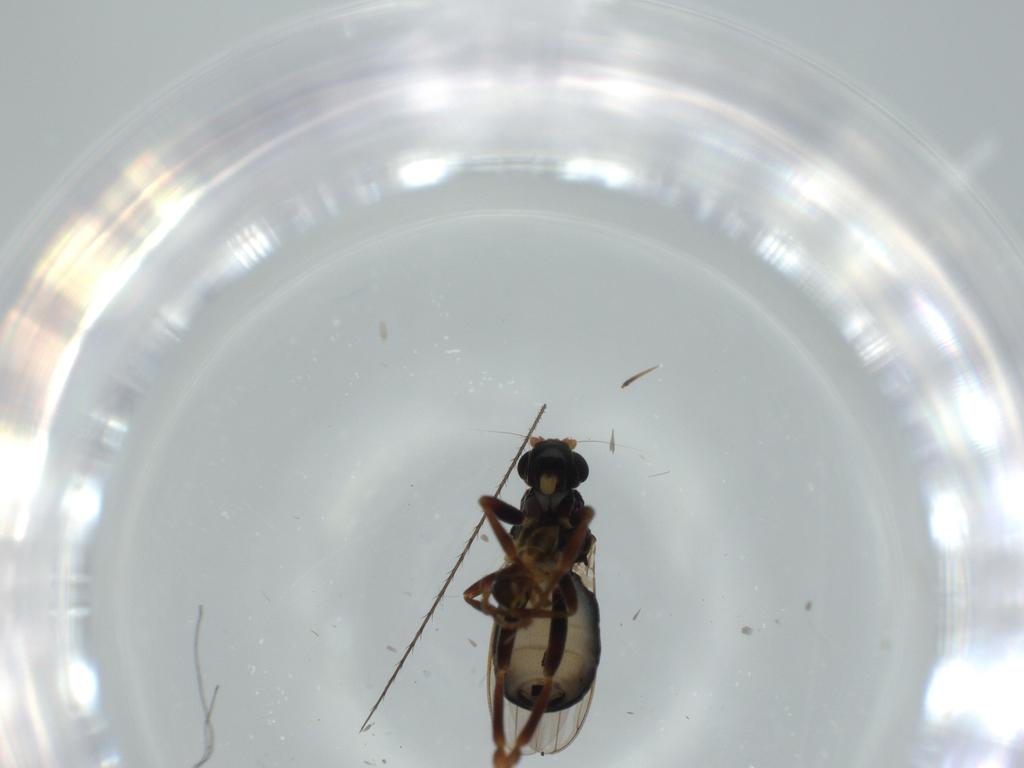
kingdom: Animalia
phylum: Arthropoda
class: Insecta
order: Diptera
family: Sphaeroceridae
